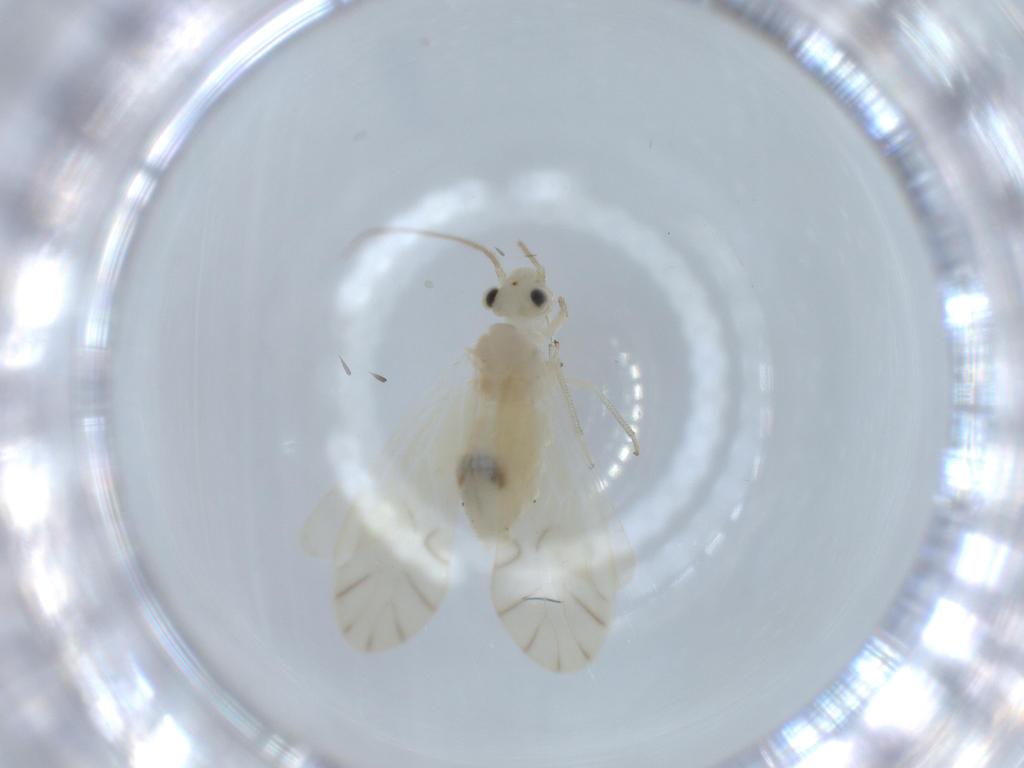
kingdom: Animalia
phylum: Arthropoda
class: Insecta
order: Psocodea
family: Caeciliusidae
